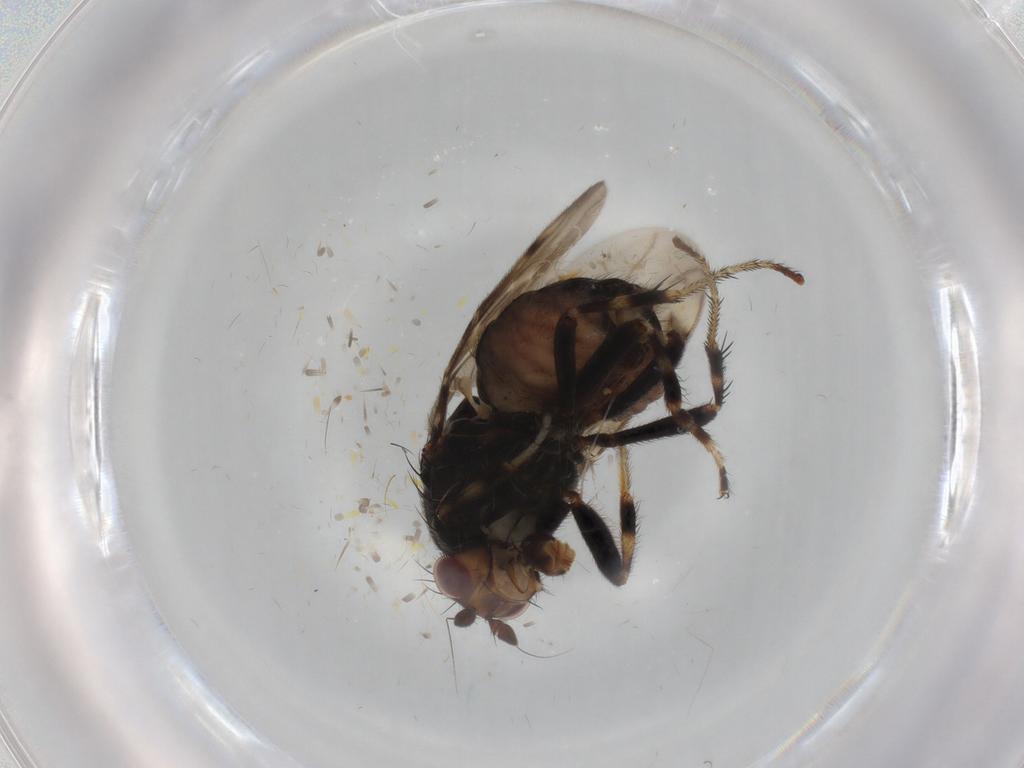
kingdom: Animalia
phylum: Arthropoda
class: Insecta
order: Diptera
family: Sphaeroceridae
